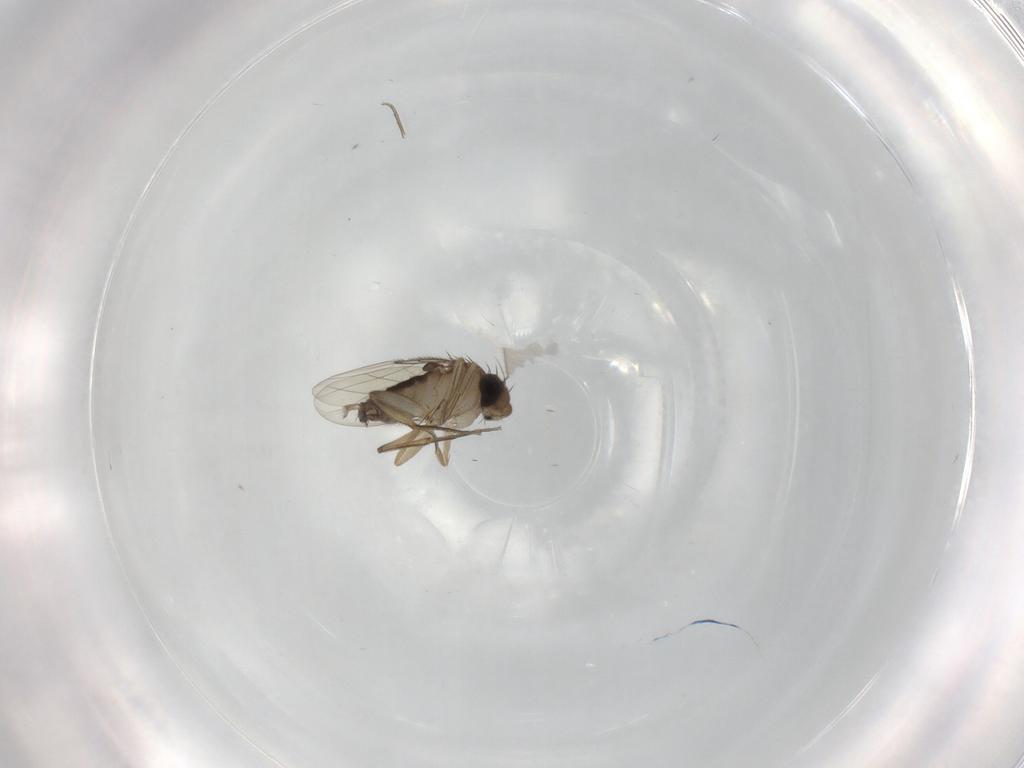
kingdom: Animalia
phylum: Arthropoda
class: Insecta
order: Diptera
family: Phoridae
